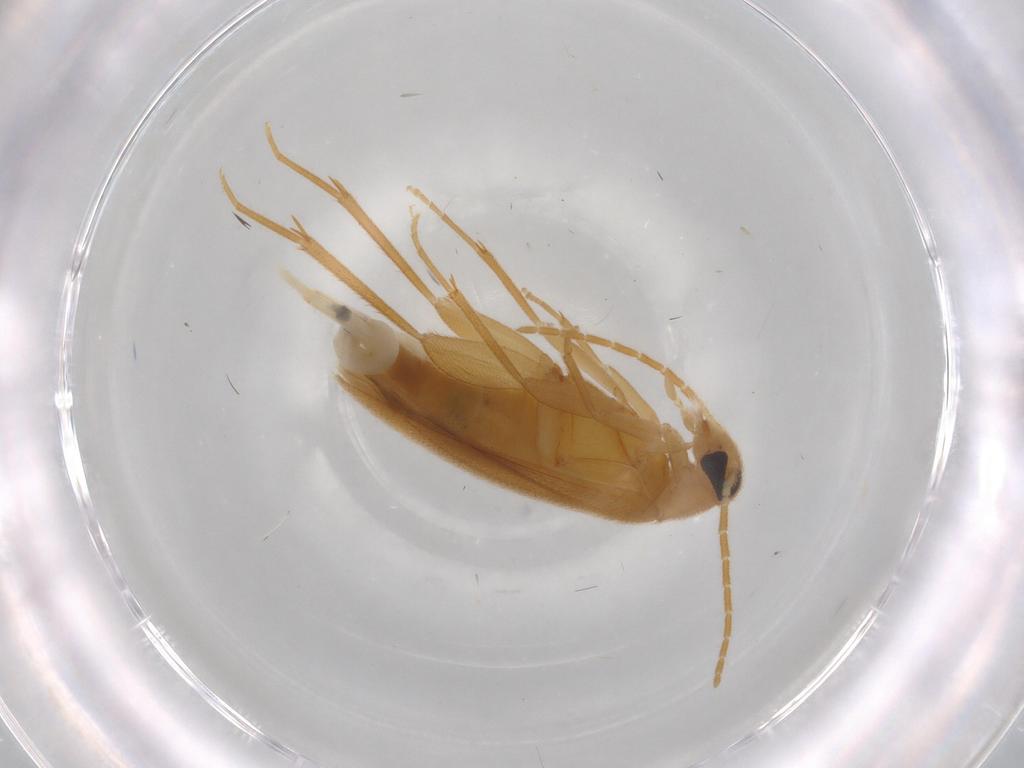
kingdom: Animalia
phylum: Arthropoda
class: Insecta
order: Coleoptera
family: Scraptiidae
